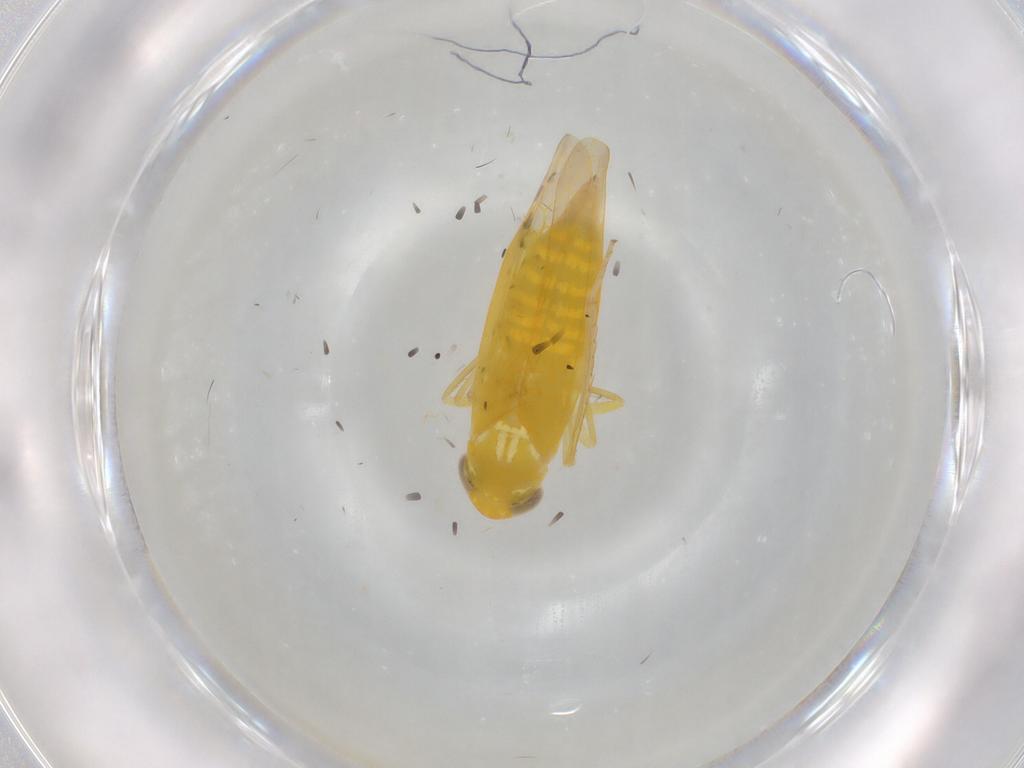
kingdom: Animalia
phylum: Arthropoda
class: Insecta
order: Hemiptera
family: Cicadellidae
